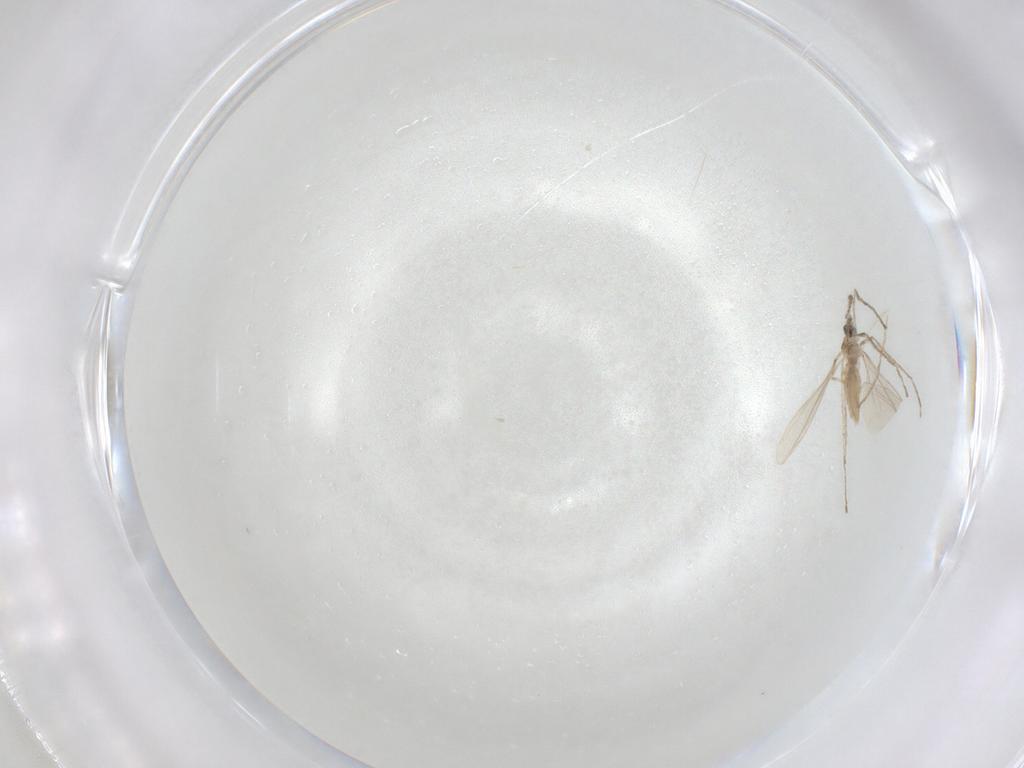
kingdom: Animalia
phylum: Arthropoda
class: Insecta
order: Diptera
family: Cecidomyiidae
